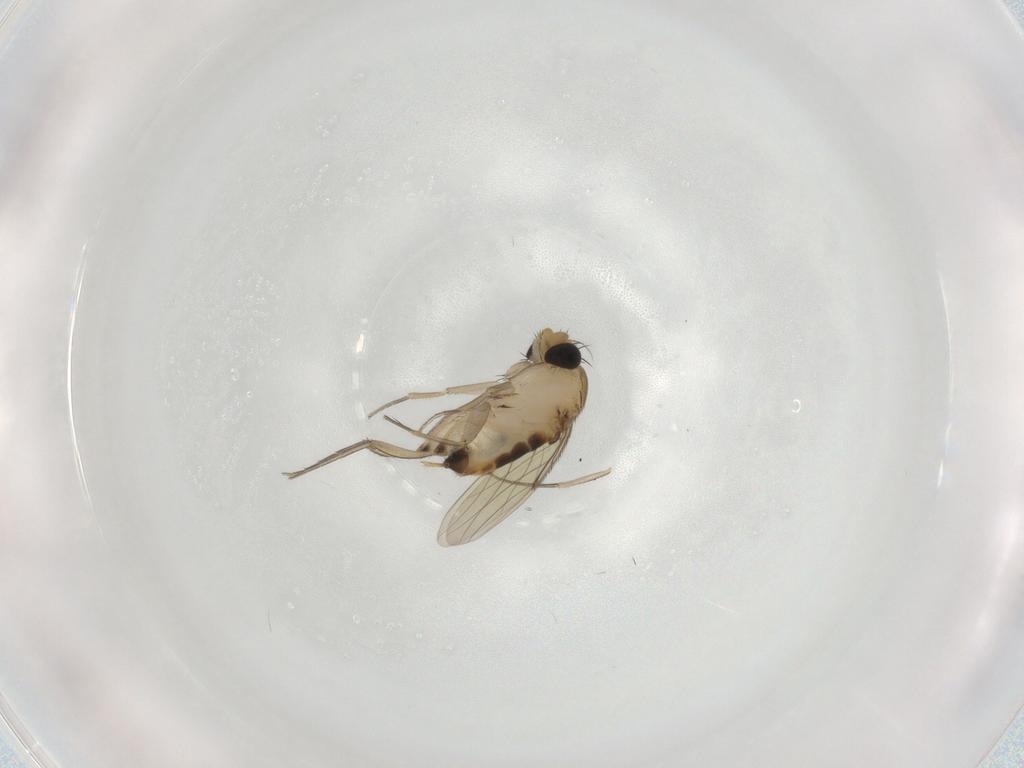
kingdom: Animalia
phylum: Arthropoda
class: Insecta
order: Diptera
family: Phoridae
